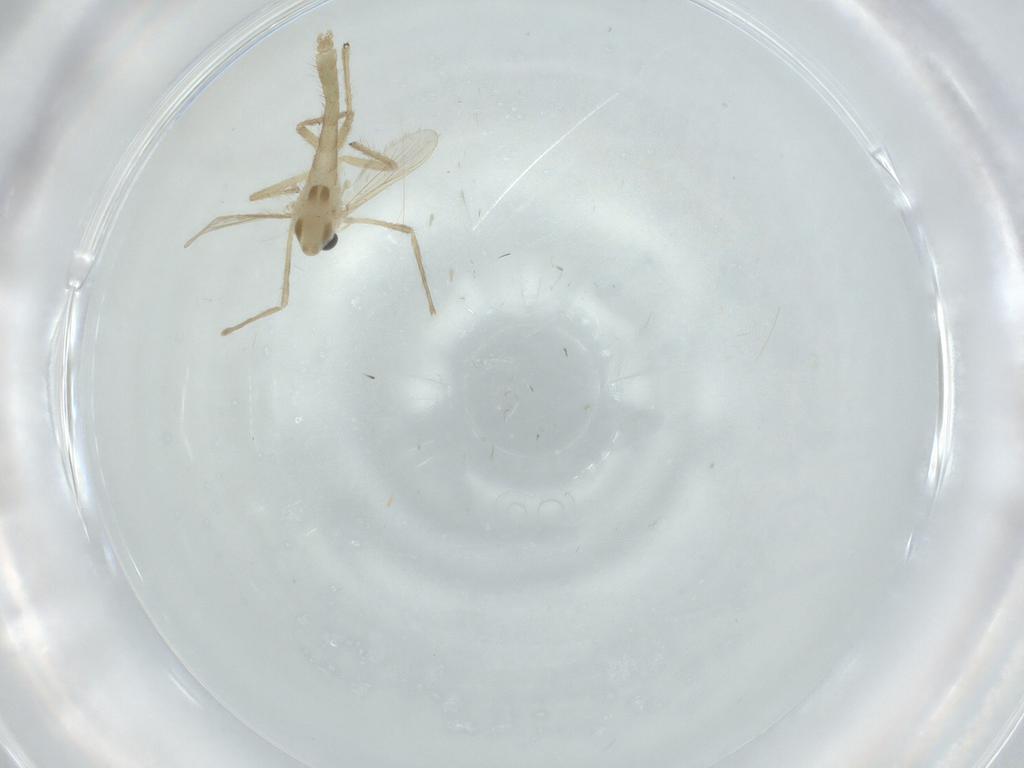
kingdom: Animalia
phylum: Arthropoda
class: Insecta
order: Diptera
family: Chironomidae
